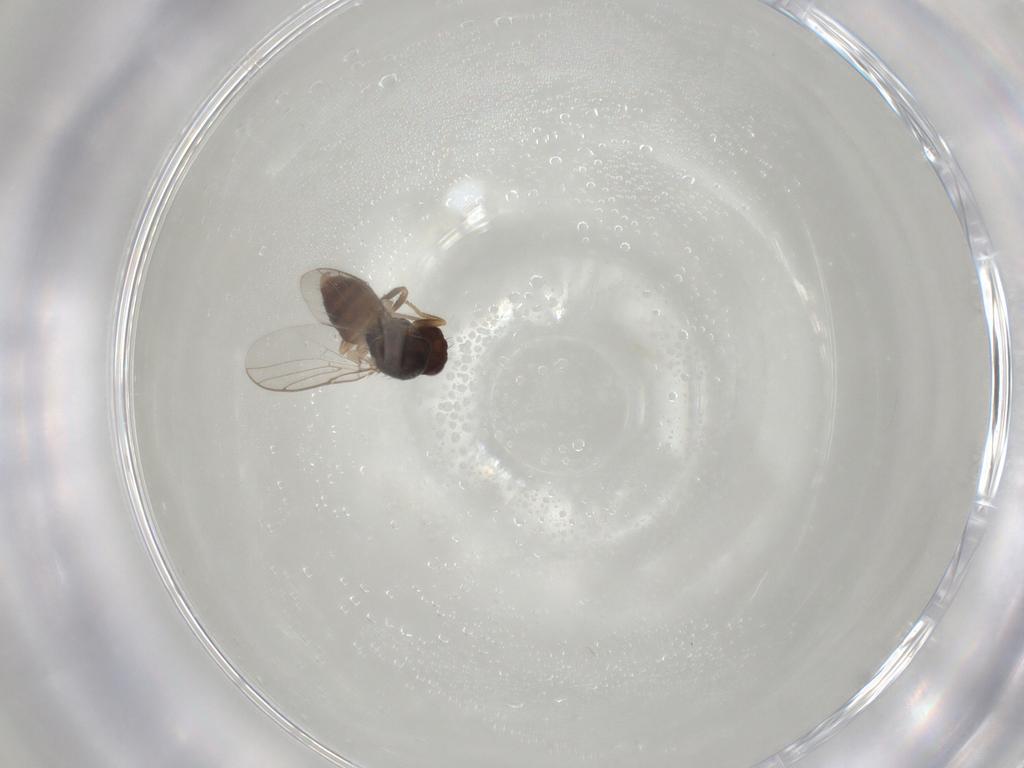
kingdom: Animalia
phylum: Arthropoda
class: Insecta
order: Diptera
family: Chloropidae
